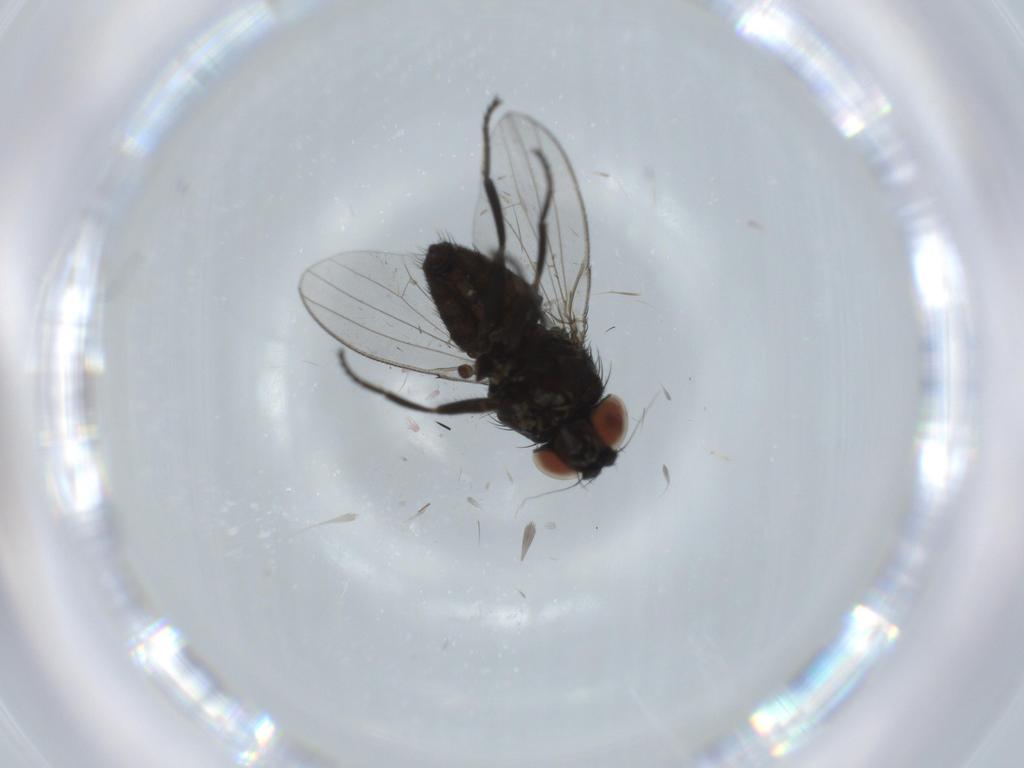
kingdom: Animalia
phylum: Arthropoda
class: Insecta
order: Diptera
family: Milichiidae
